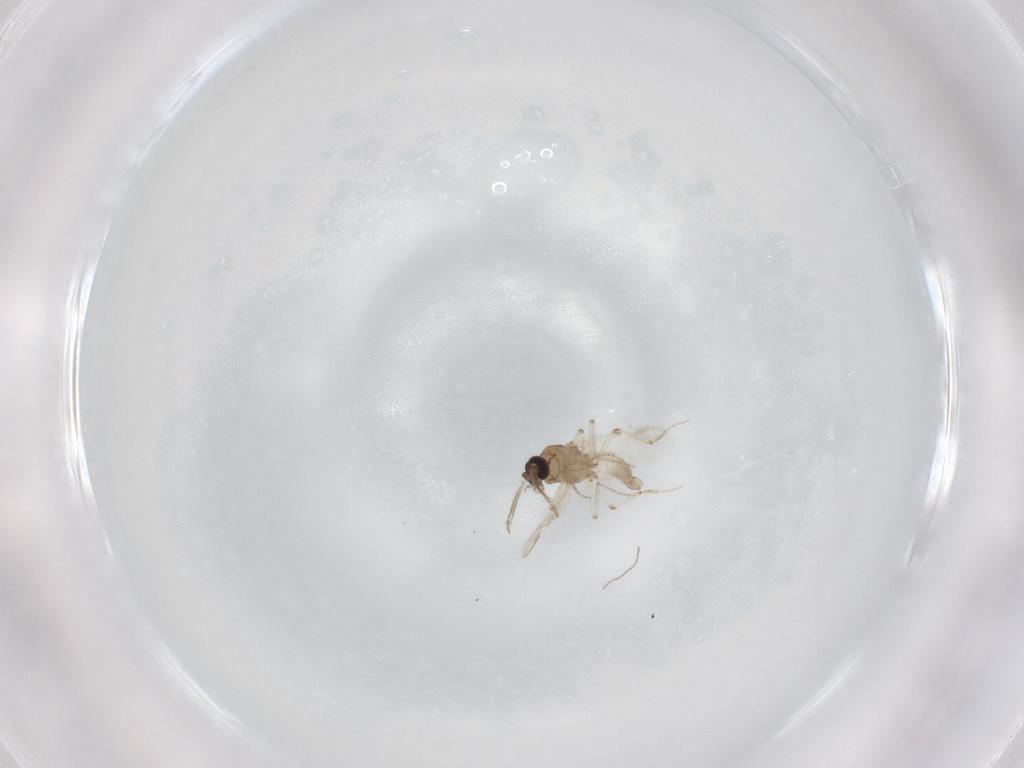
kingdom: Animalia
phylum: Arthropoda
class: Insecta
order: Diptera
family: Ceratopogonidae
